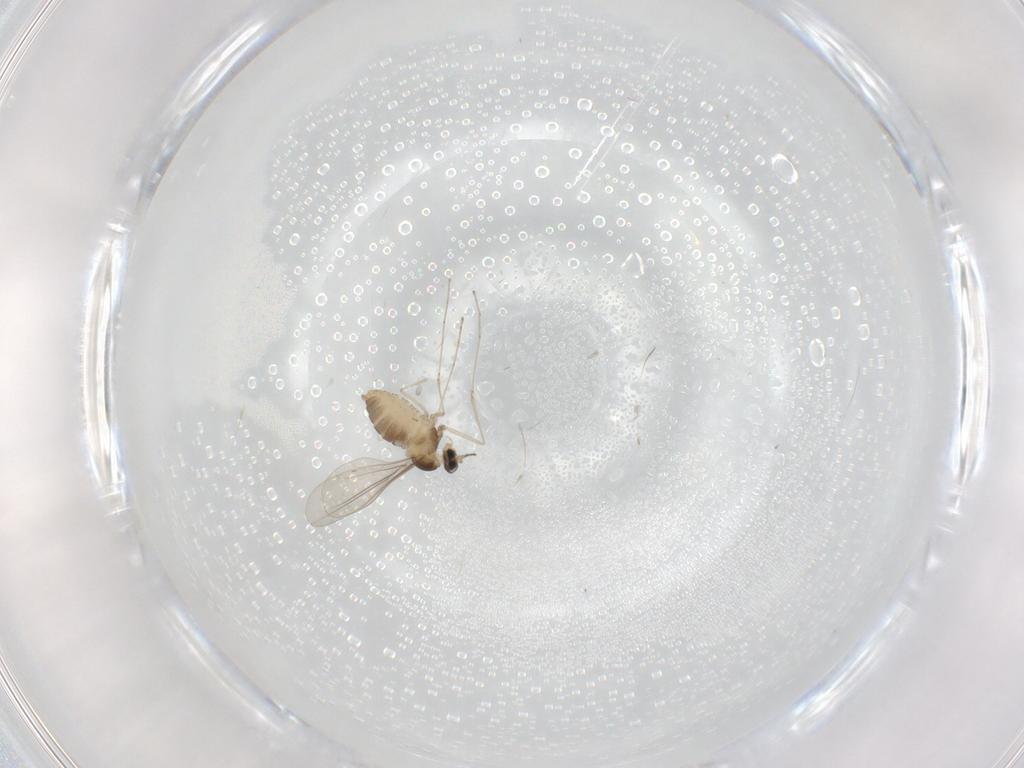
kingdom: Animalia
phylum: Arthropoda
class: Insecta
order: Diptera
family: Cecidomyiidae
